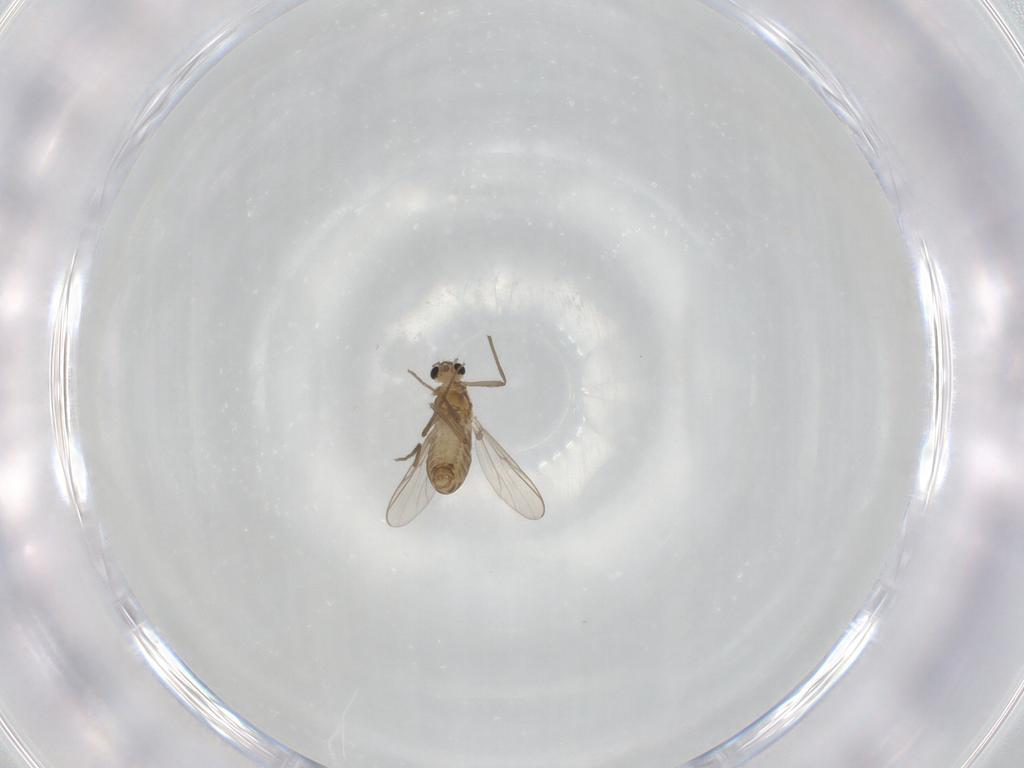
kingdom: Animalia
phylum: Arthropoda
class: Insecta
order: Diptera
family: Chironomidae
